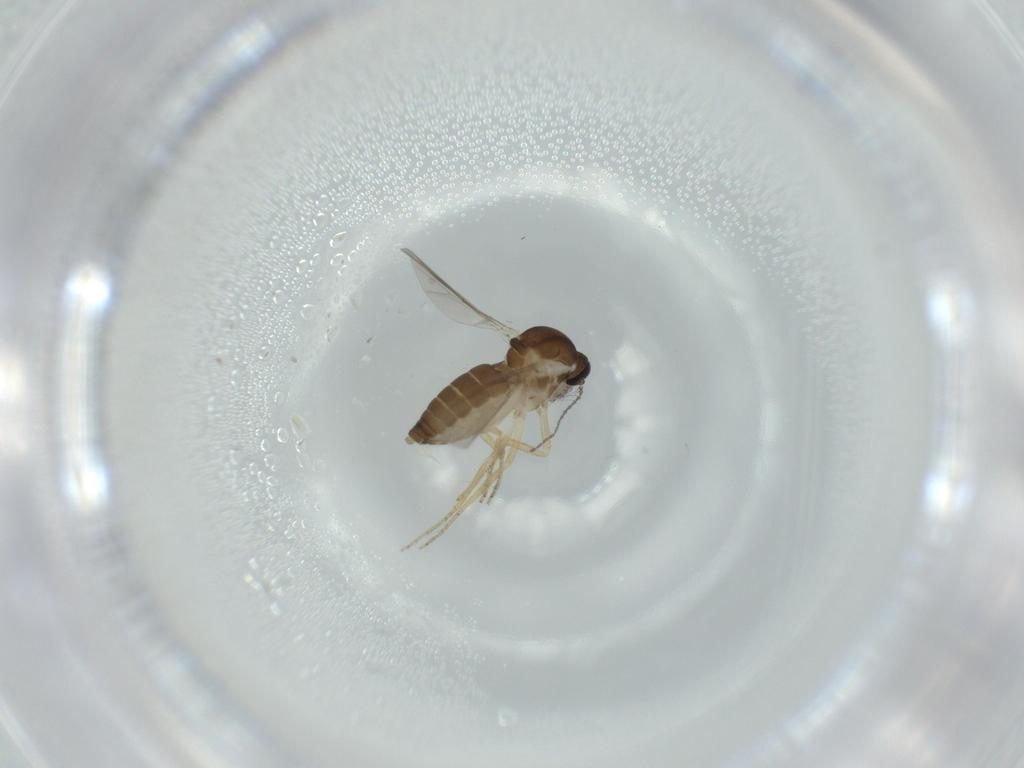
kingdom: Animalia
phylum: Arthropoda
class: Insecta
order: Diptera
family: Ceratopogonidae
